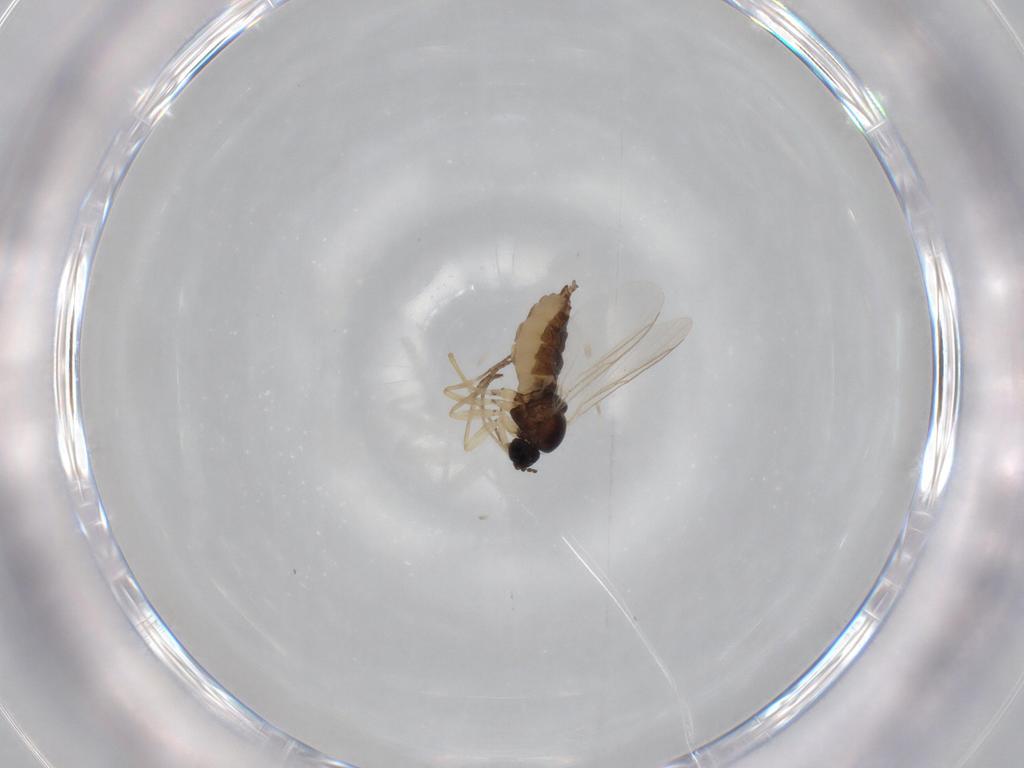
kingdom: Animalia
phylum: Arthropoda
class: Insecta
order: Diptera
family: Sciaridae
